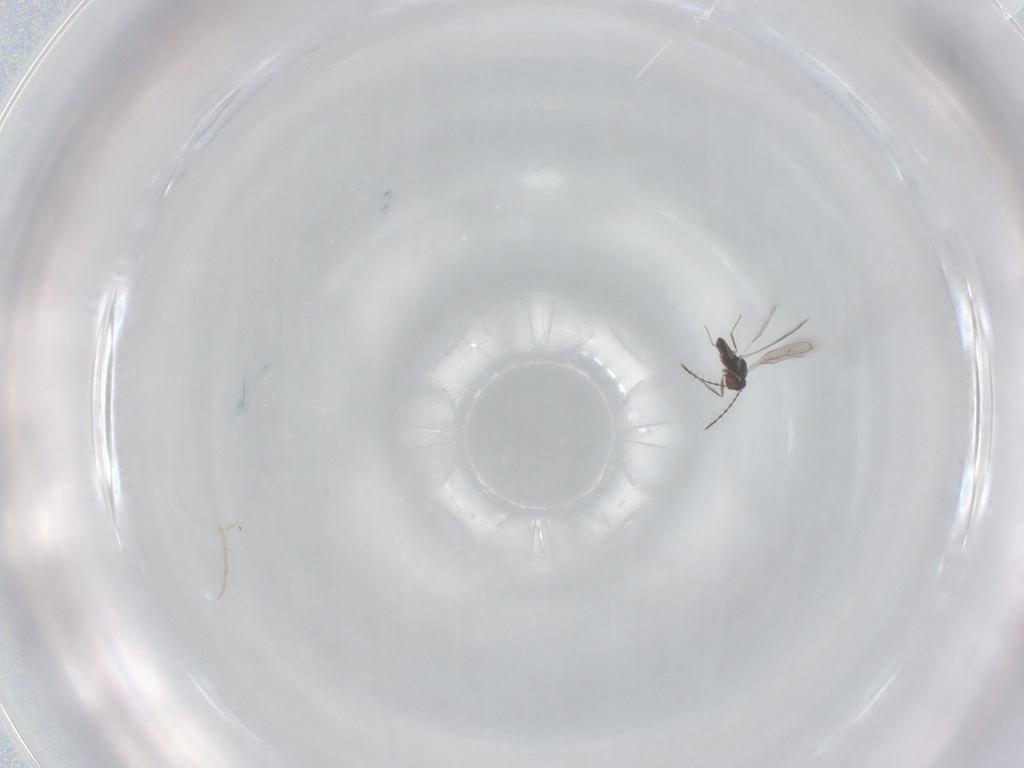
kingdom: Animalia
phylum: Arthropoda
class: Insecta
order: Hymenoptera
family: Pteromalidae
